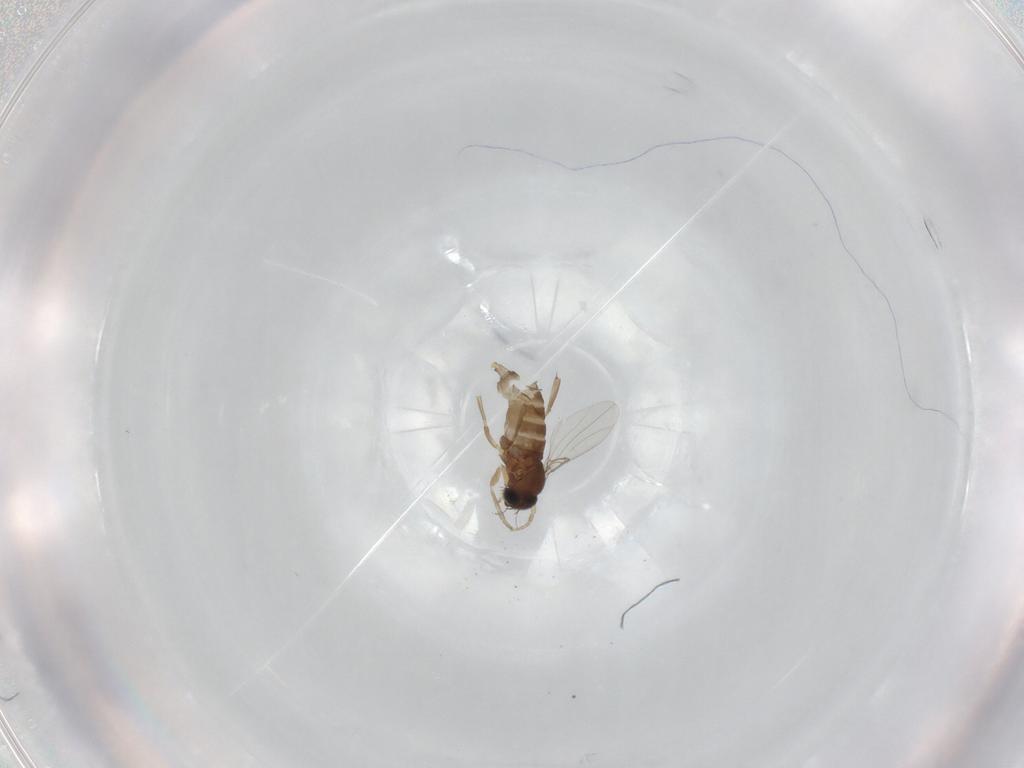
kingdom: Animalia
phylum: Arthropoda
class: Insecta
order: Diptera
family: Phoridae
